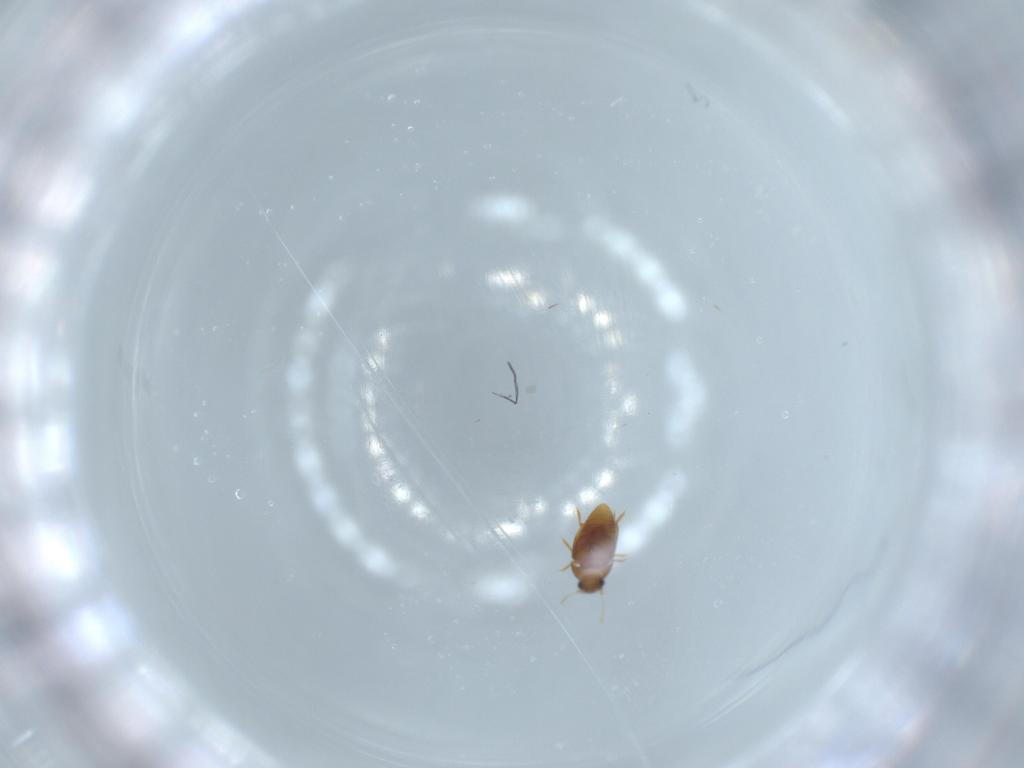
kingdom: Animalia
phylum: Arthropoda
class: Insecta
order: Coleoptera
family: Ptiliidae
